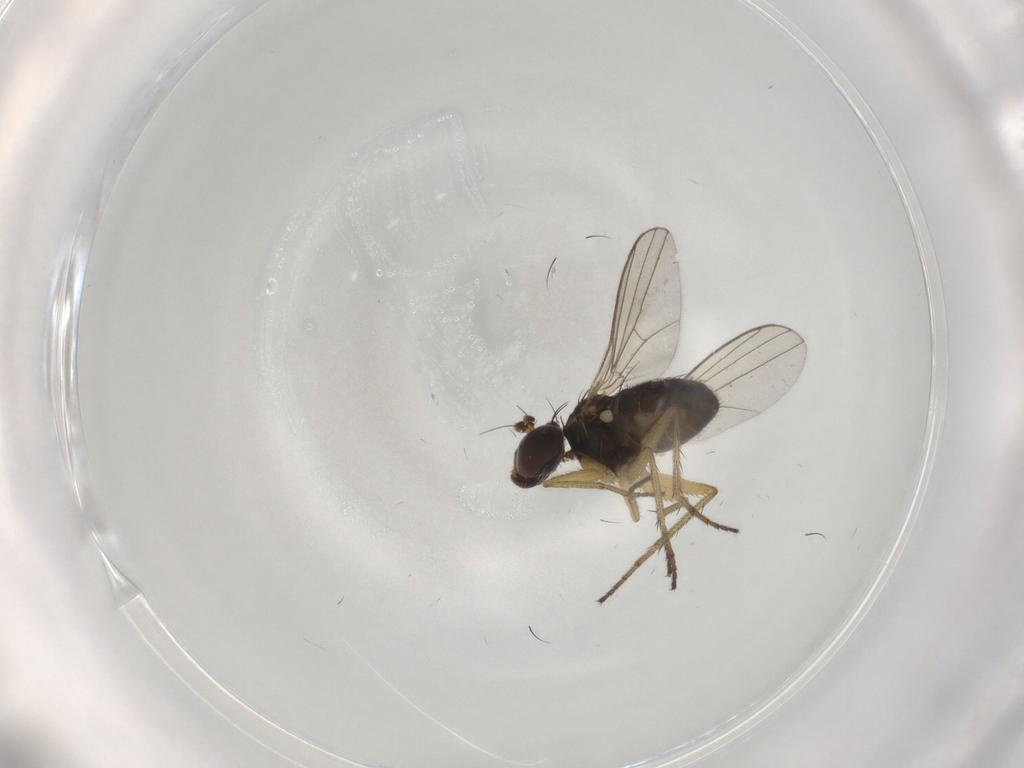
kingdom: Animalia
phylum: Arthropoda
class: Insecta
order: Diptera
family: Dolichopodidae
